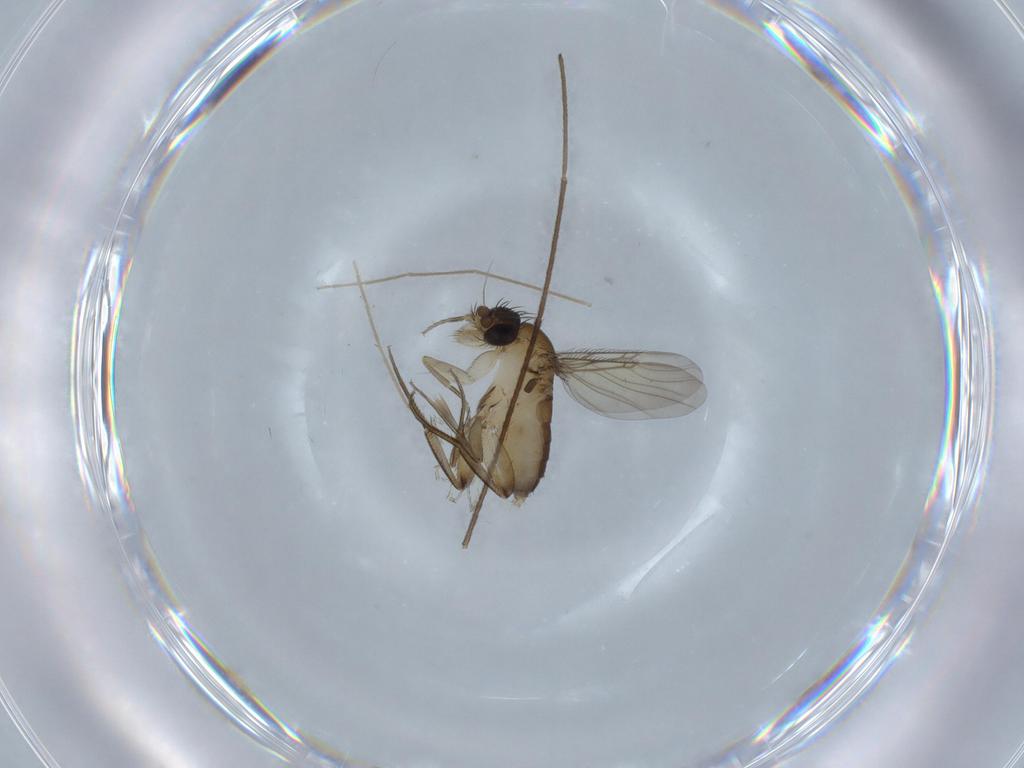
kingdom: Animalia
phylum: Arthropoda
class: Insecta
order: Diptera
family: Phoridae
